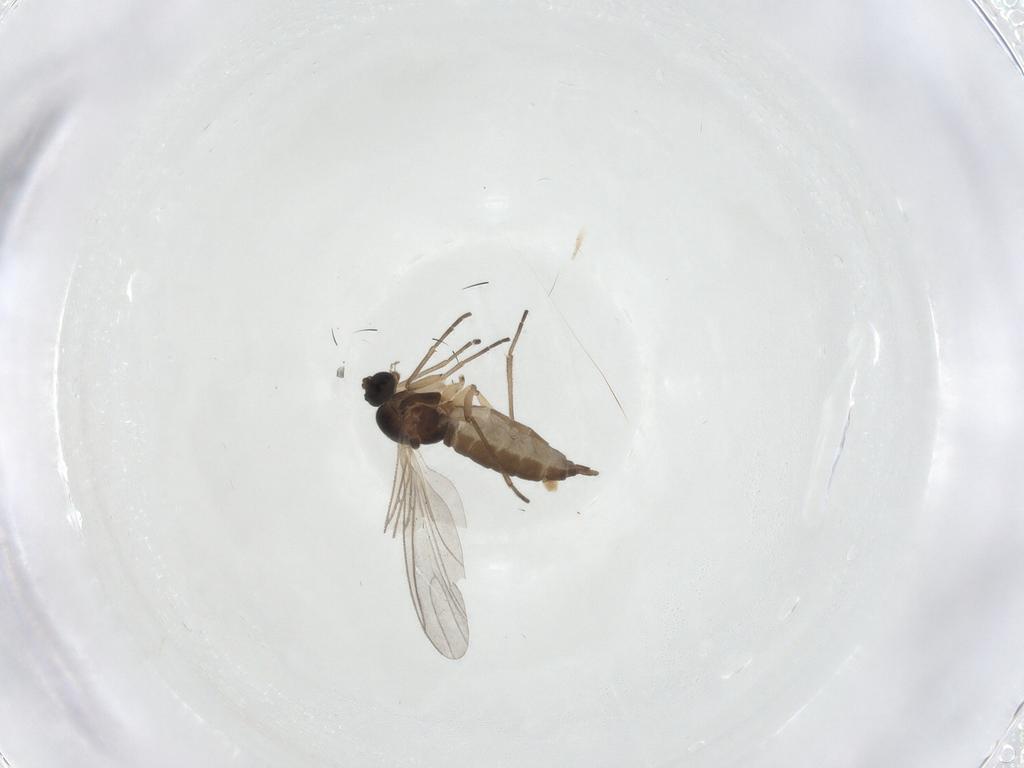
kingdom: Animalia
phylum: Arthropoda
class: Insecta
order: Diptera
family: Sciaridae
